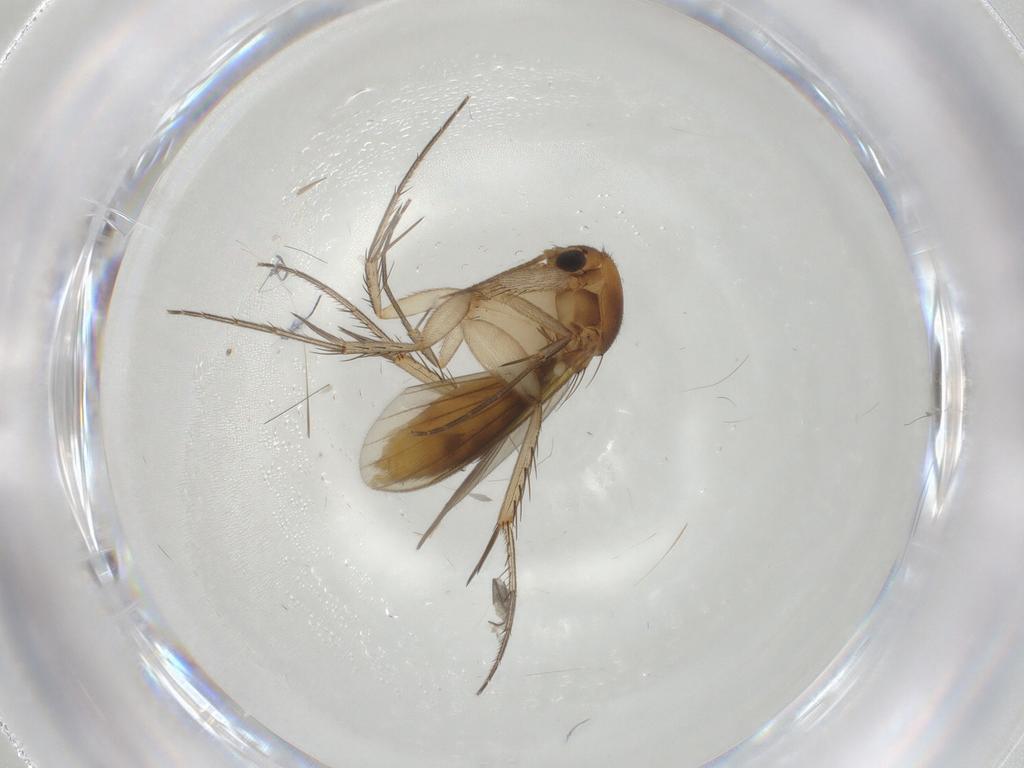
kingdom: Animalia
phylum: Arthropoda
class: Insecta
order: Diptera
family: Mycetophilidae
